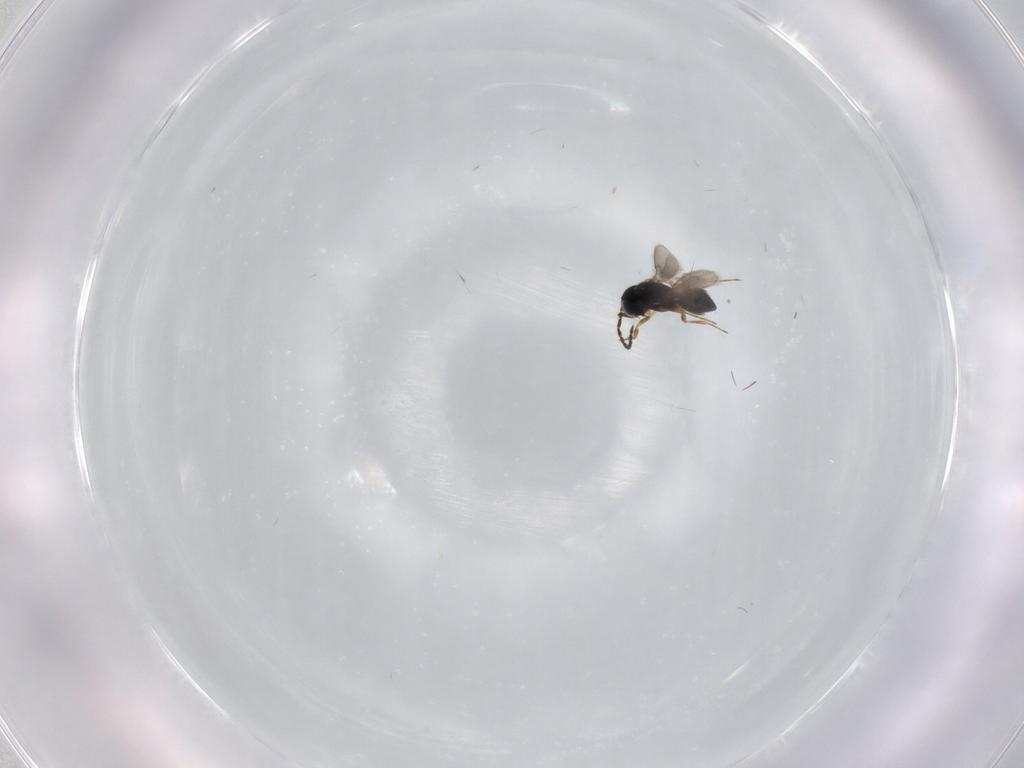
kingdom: Animalia
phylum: Arthropoda
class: Insecta
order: Hymenoptera
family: Scelionidae
